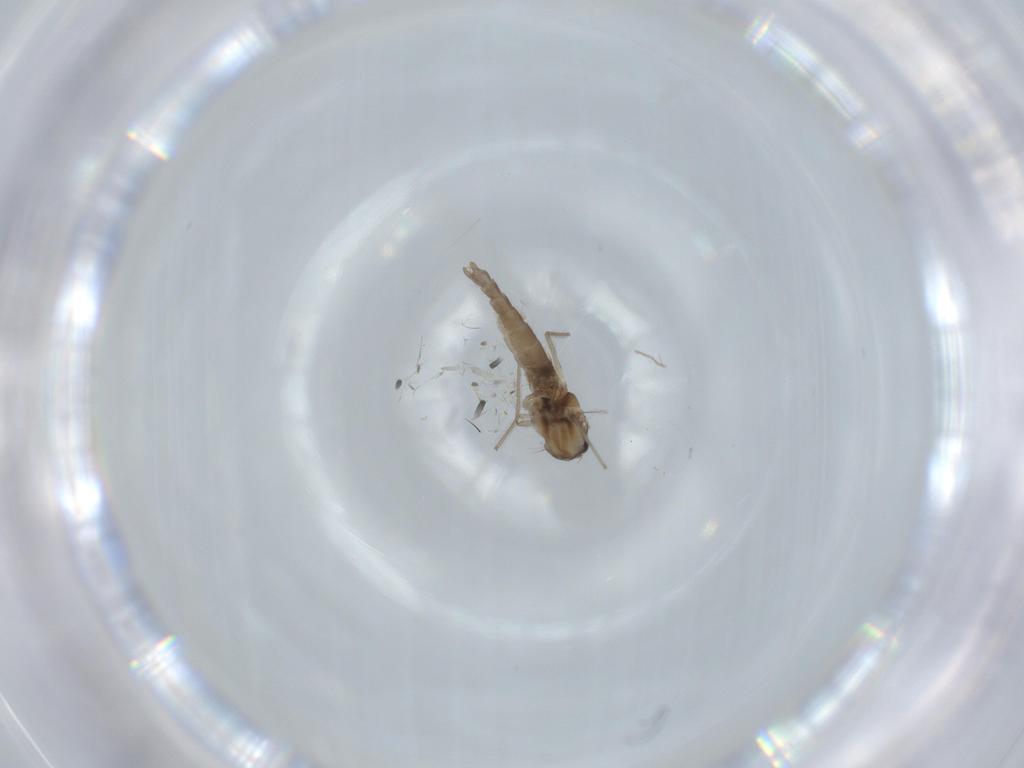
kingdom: Animalia
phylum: Arthropoda
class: Insecta
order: Diptera
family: Chironomidae
